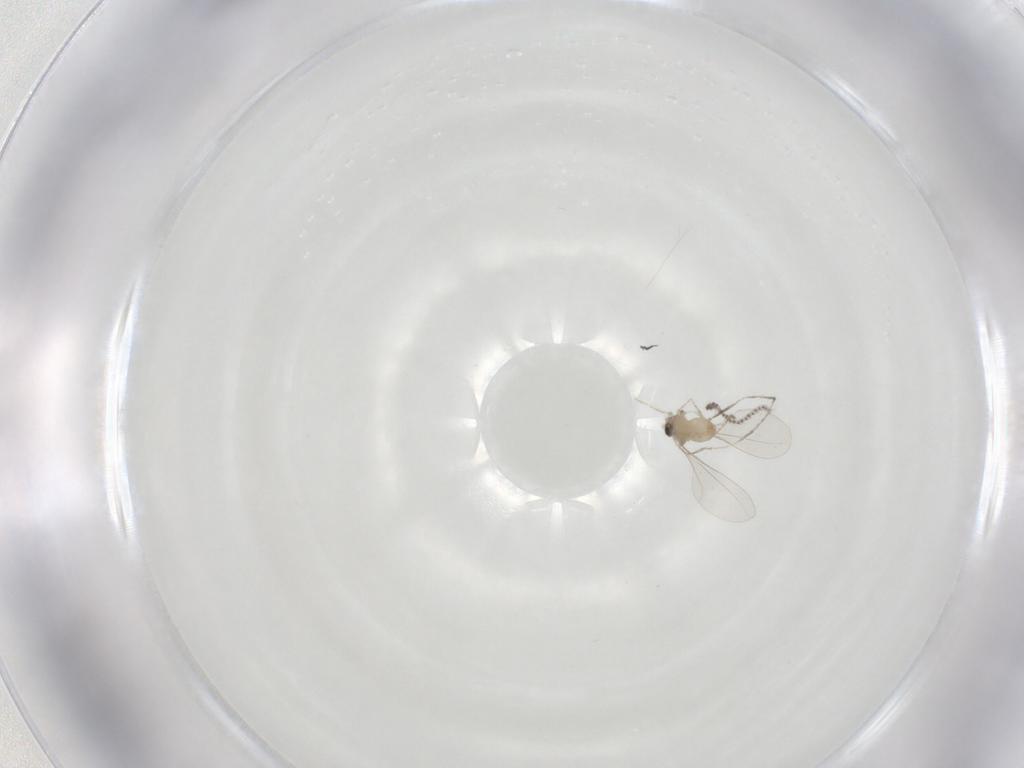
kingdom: Animalia
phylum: Arthropoda
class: Insecta
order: Diptera
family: Cecidomyiidae
